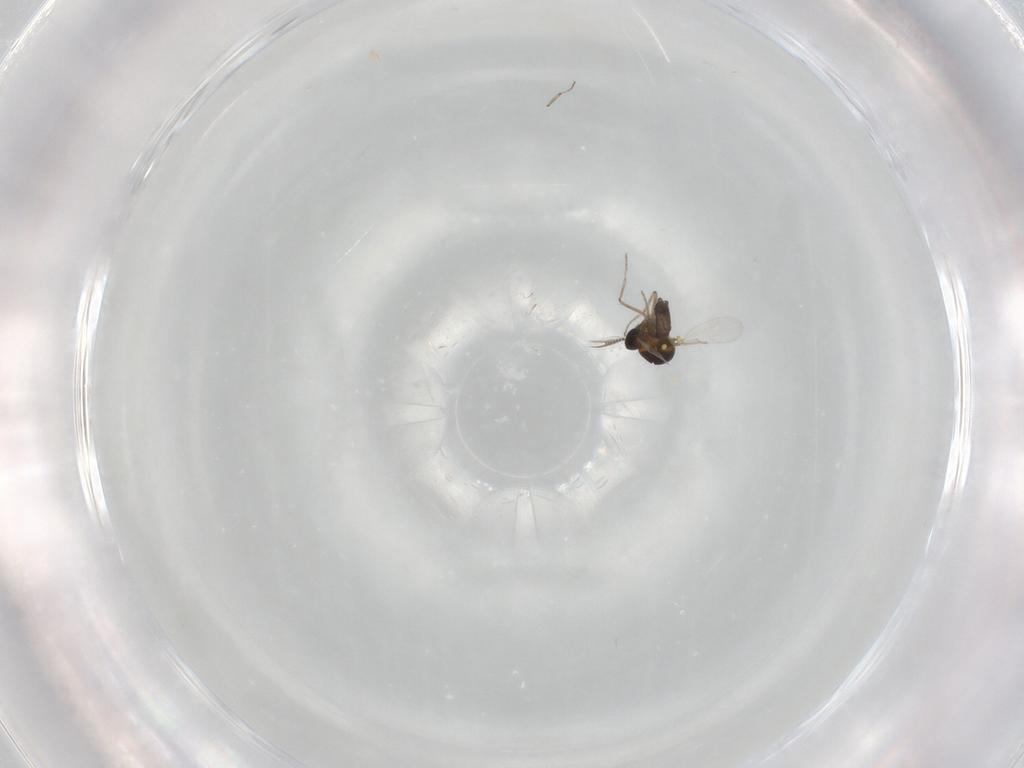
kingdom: Animalia
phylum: Arthropoda
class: Insecta
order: Diptera
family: Ceratopogonidae
